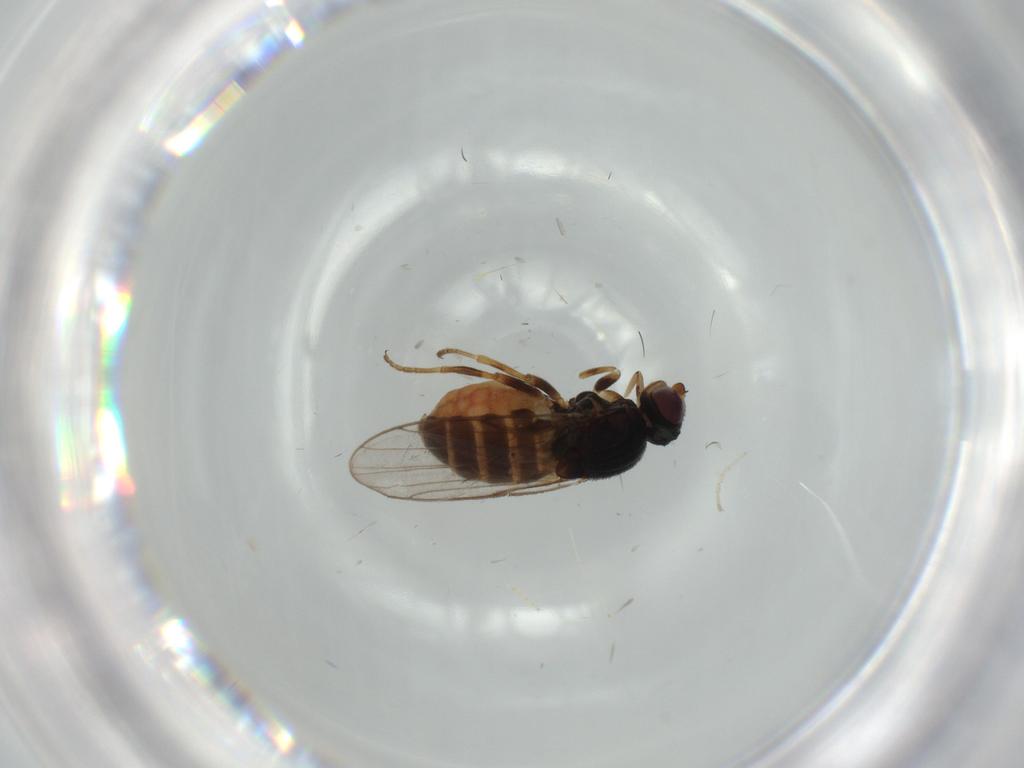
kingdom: Animalia
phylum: Arthropoda
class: Insecta
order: Diptera
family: Chloropidae
